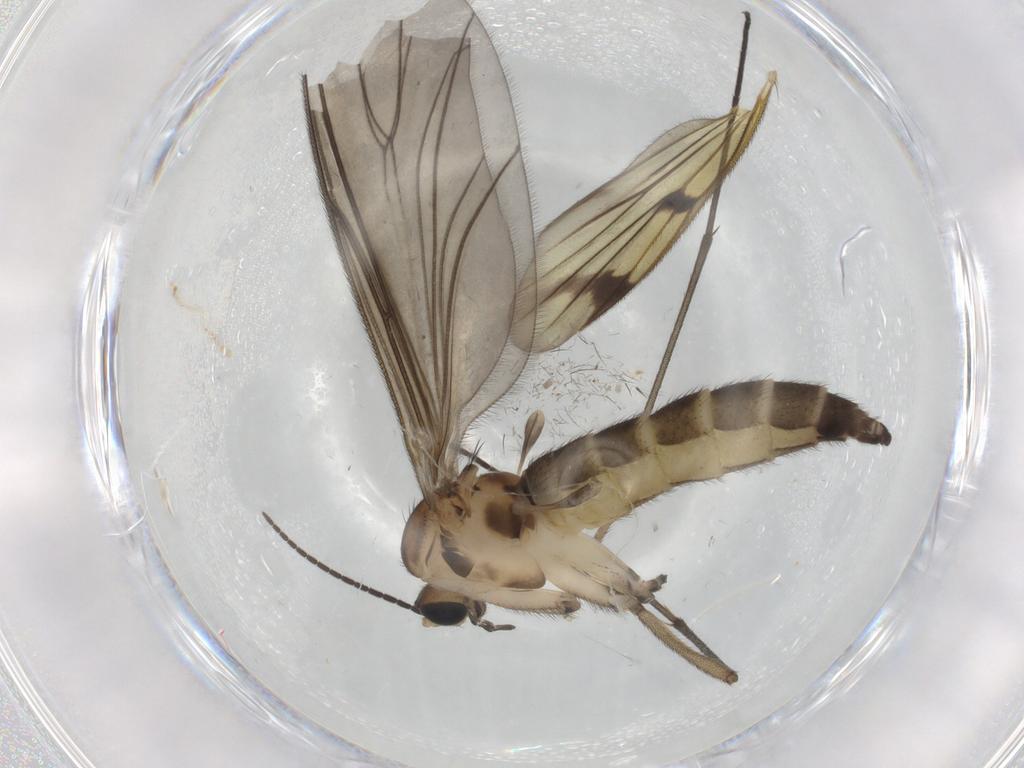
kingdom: Animalia
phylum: Arthropoda
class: Insecta
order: Diptera
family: Sciaridae
